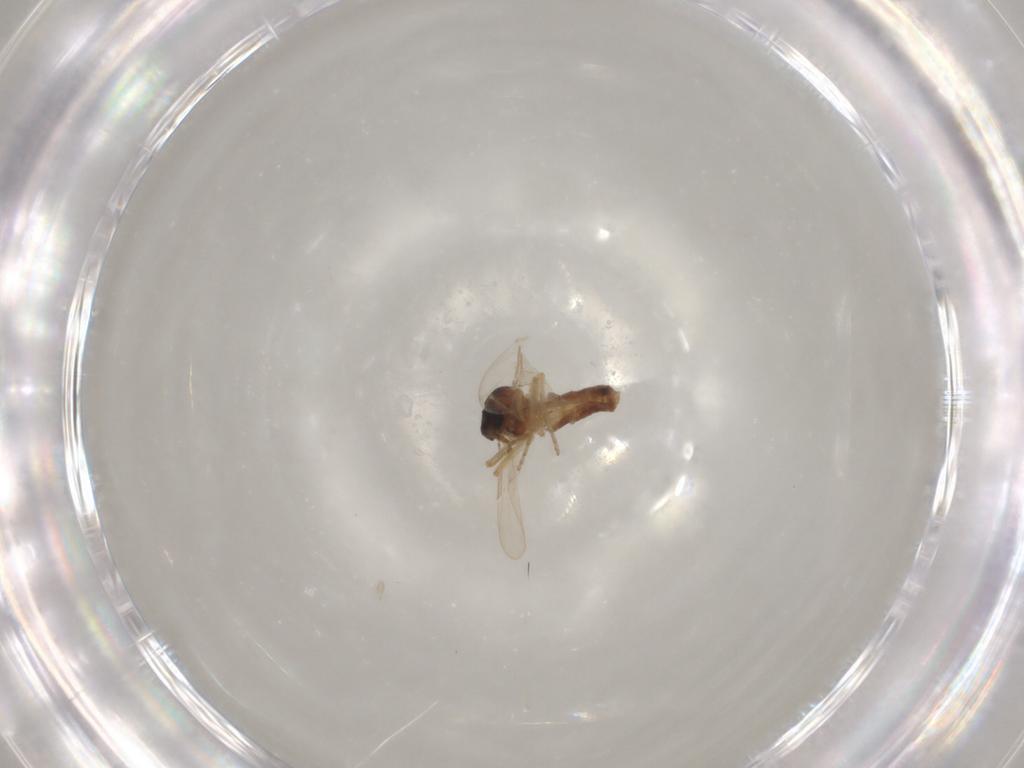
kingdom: Animalia
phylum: Arthropoda
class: Insecta
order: Diptera
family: Ceratopogonidae
